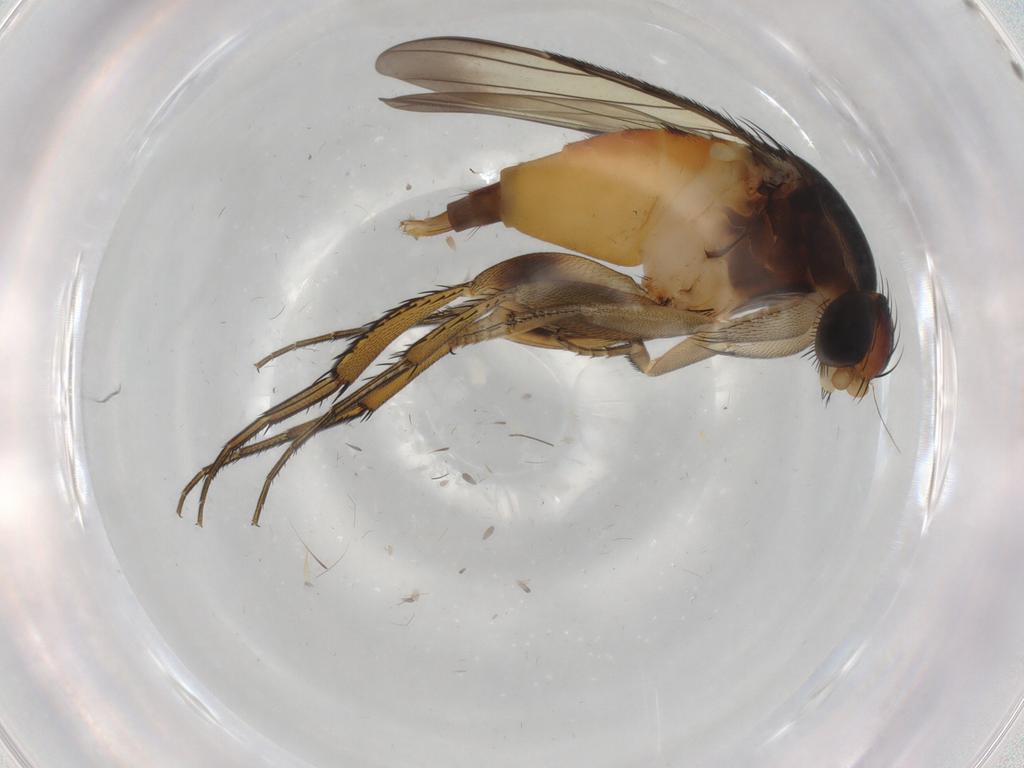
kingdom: Animalia
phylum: Arthropoda
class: Insecta
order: Diptera
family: Phoridae
